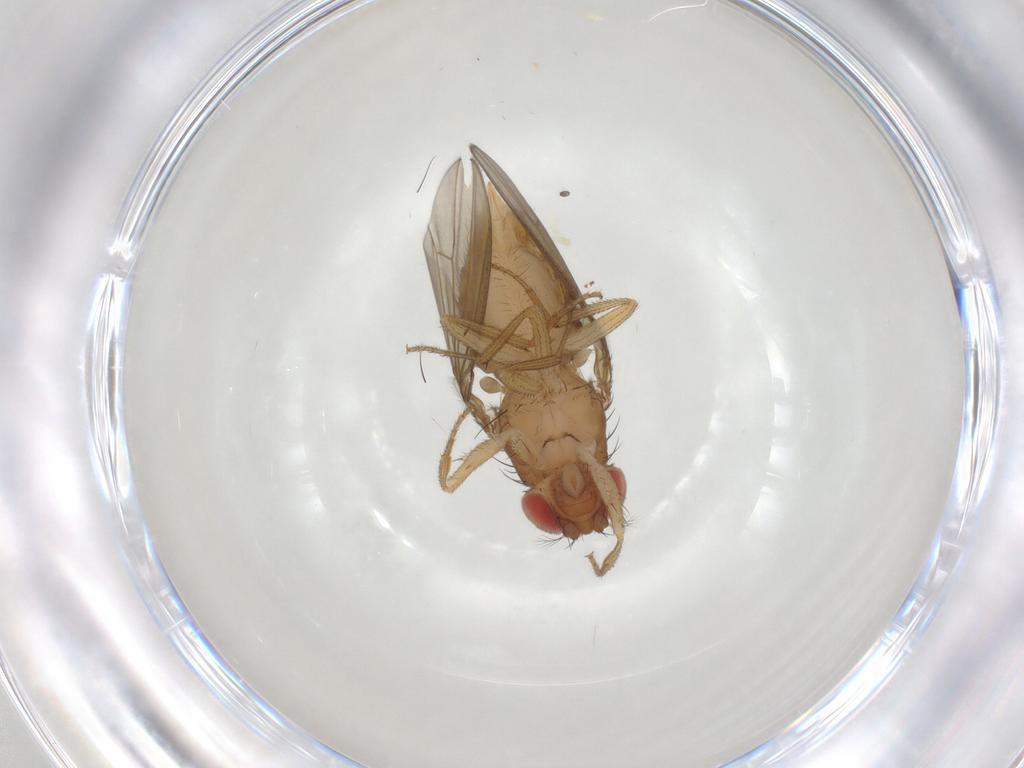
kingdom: Animalia
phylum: Arthropoda
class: Insecta
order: Diptera
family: Drosophilidae
